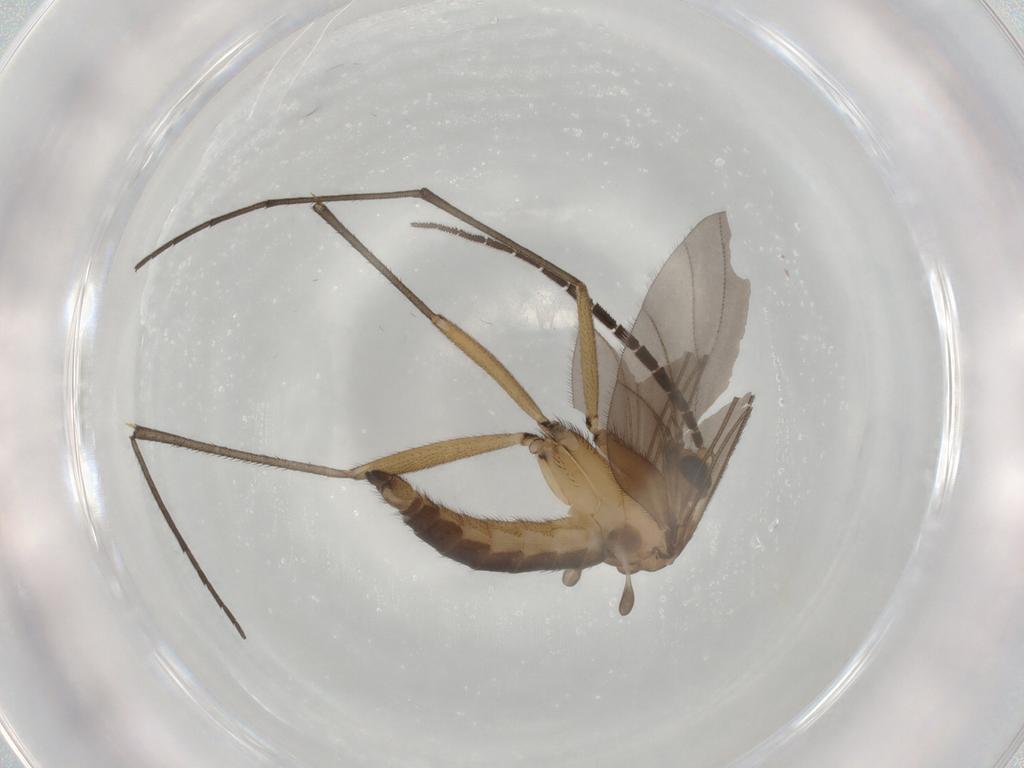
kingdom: Animalia
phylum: Arthropoda
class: Insecta
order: Diptera
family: Sciaridae
